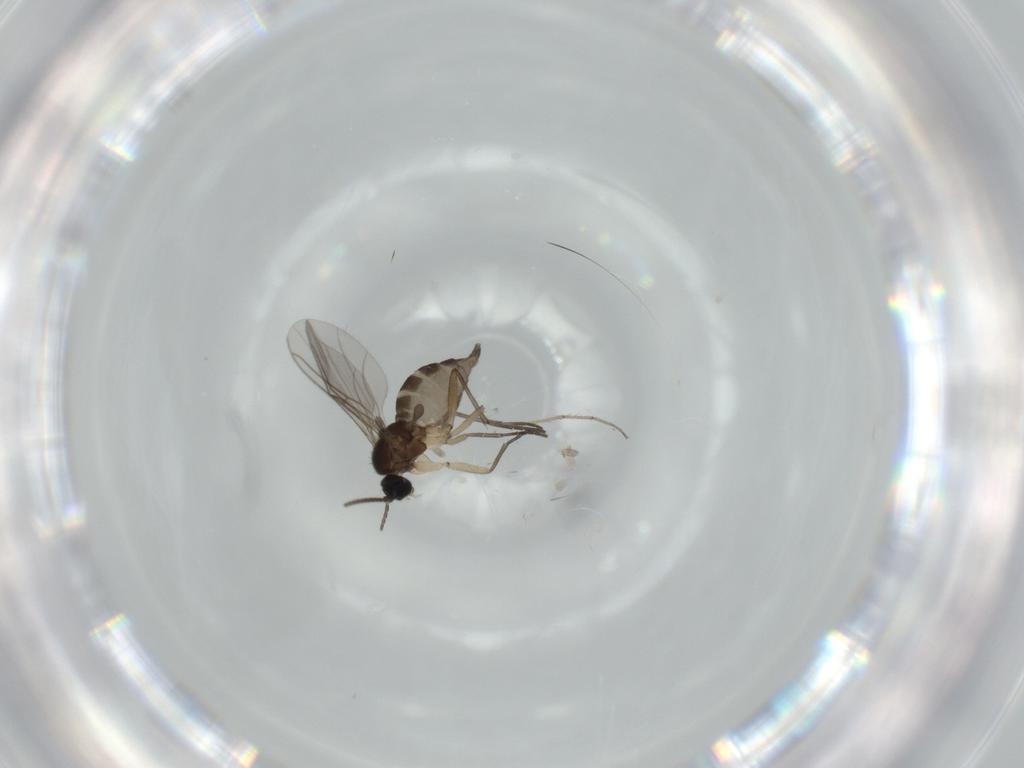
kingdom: Animalia
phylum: Arthropoda
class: Insecta
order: Diptera
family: Sciaridae
